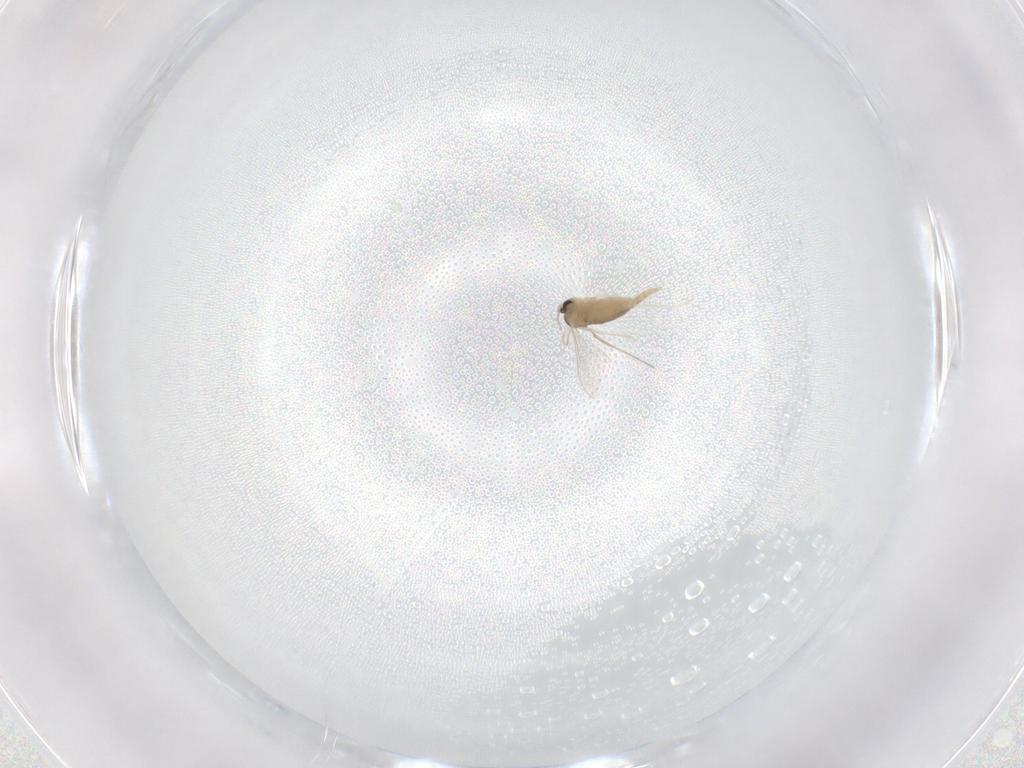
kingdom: Animalia
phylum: Arthropoda
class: Insecta
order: Diptera
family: Cecidomyiidae
